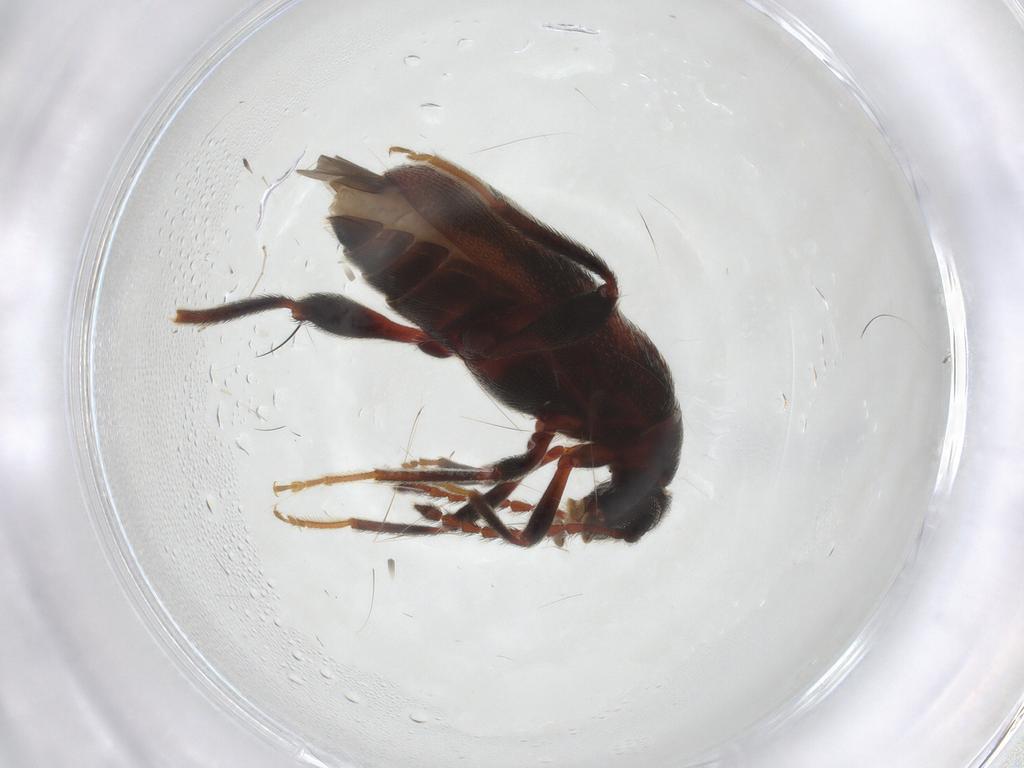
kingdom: Animalia
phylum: Arthropoda
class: Insecta
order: Coleoptera
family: Aderidae
